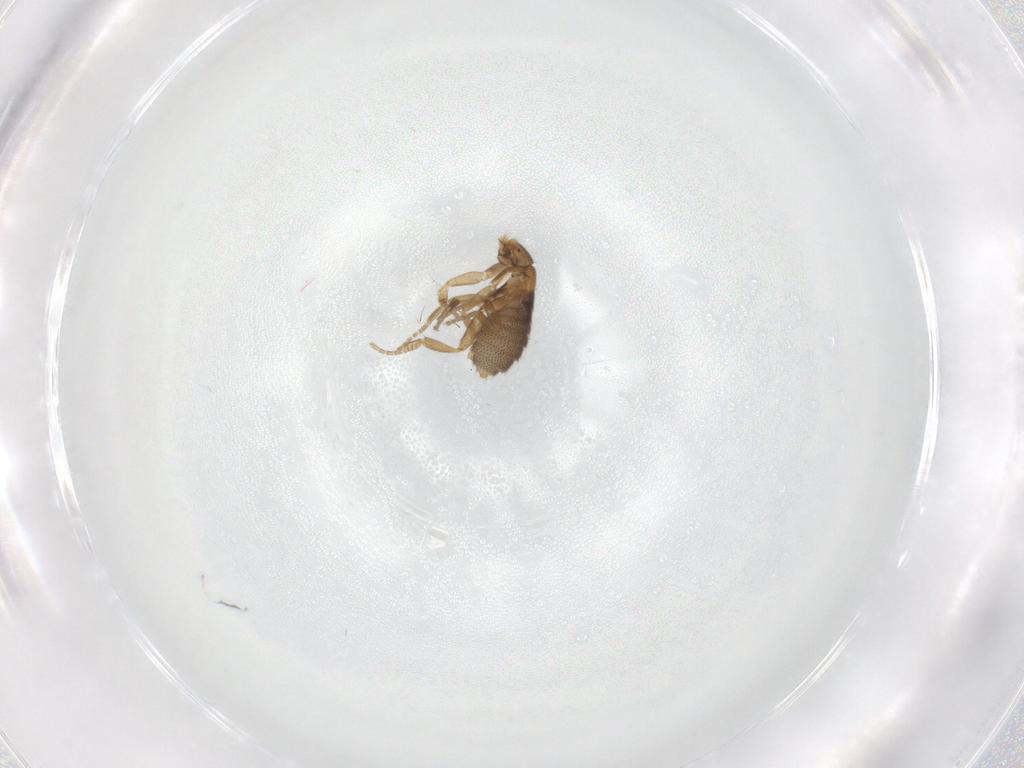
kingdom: Animalia
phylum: Arthropoda
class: Insecta
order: Diptera
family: Phoridae
